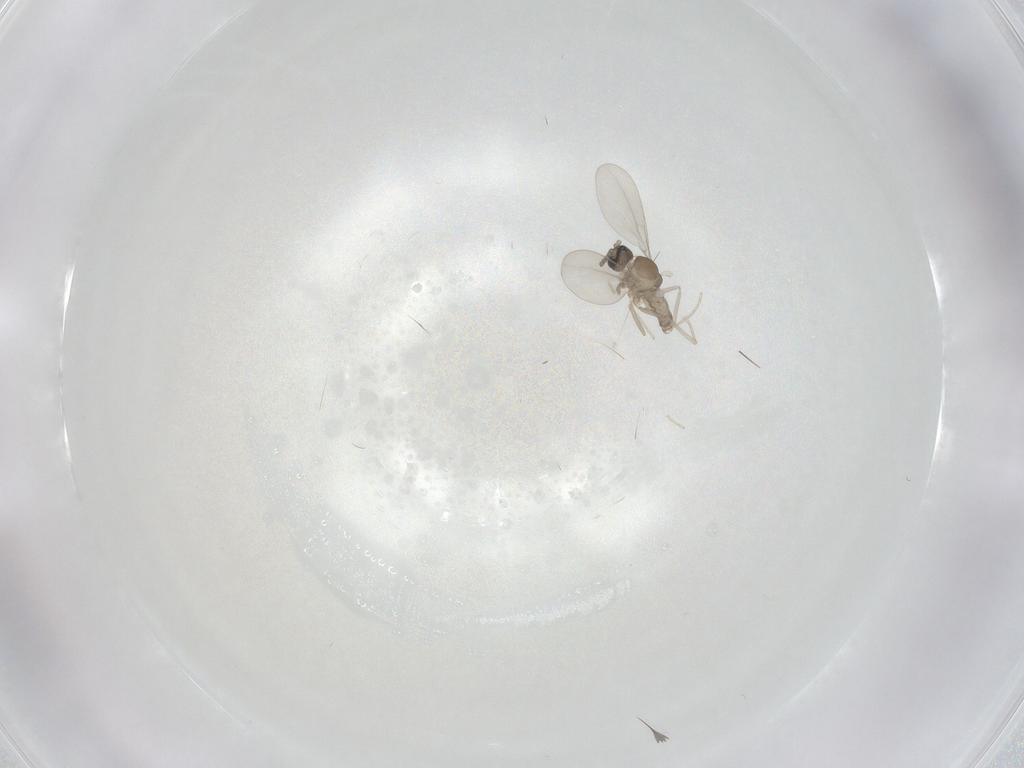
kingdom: Animalia
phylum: Arthropoda
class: Insecta
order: Diptera
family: Cecidomyiidae
